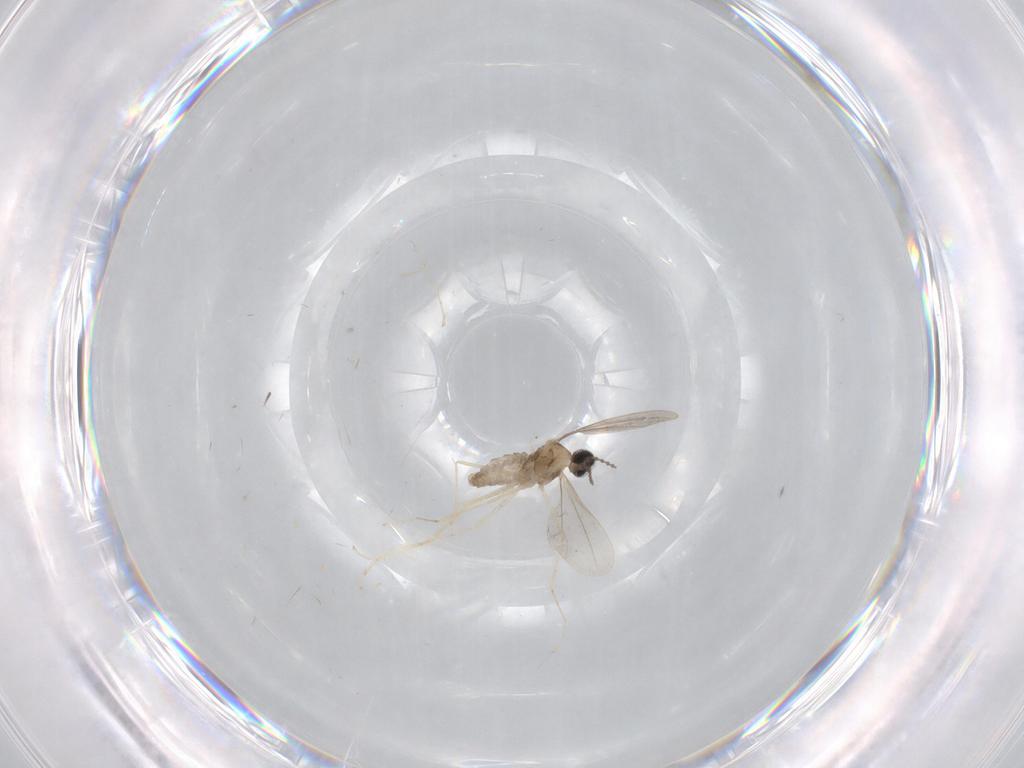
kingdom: Animalia
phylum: Arthropoda
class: Insecta
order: Diptera
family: Cecidomyiidae
